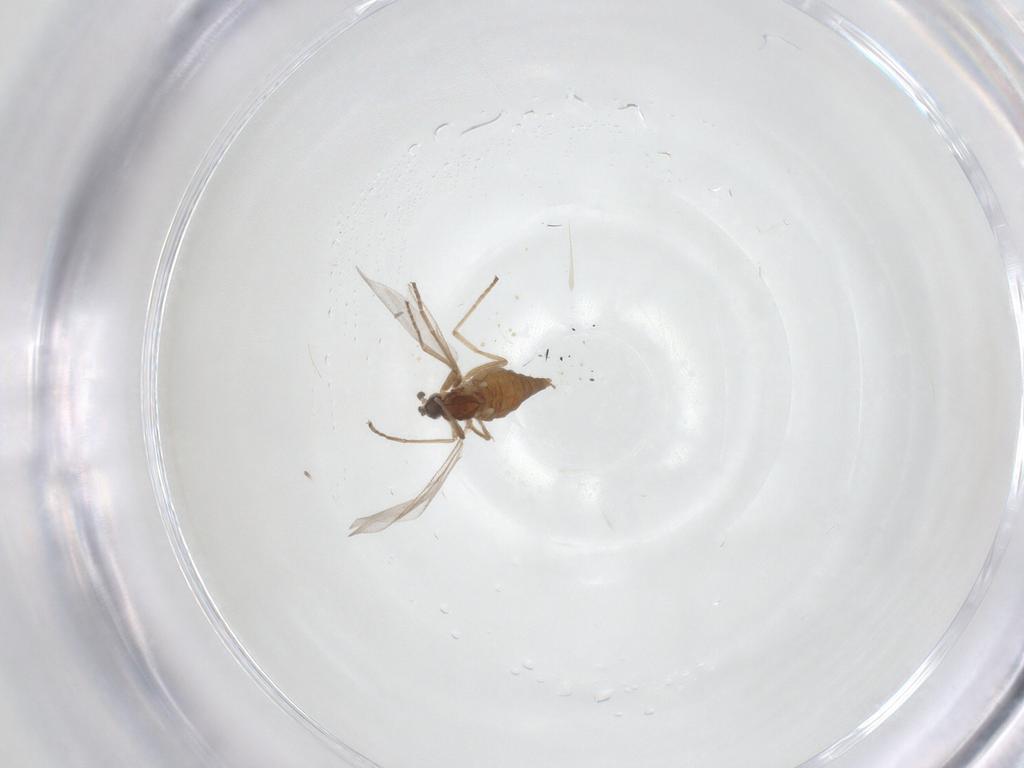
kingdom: Animalia
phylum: Arthropoda
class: Insecta
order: Diptera
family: Cecidomyiidae
